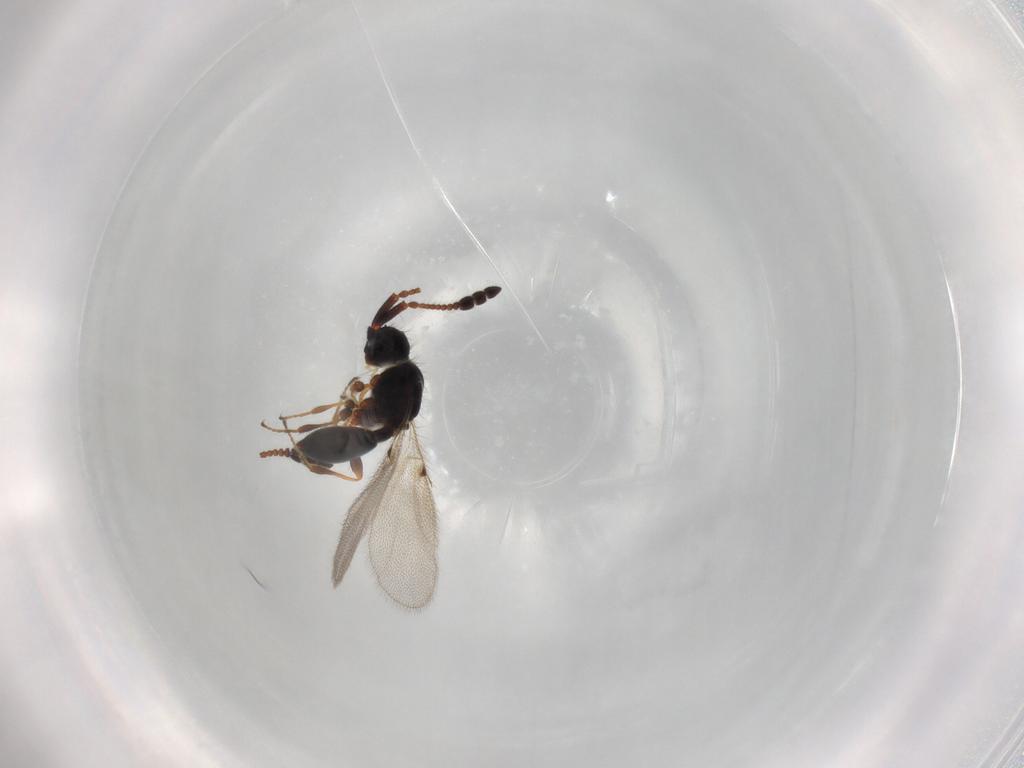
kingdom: Animalia
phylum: Arthropoda
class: Insecta
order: Hymenoptera
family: Diapriidae
